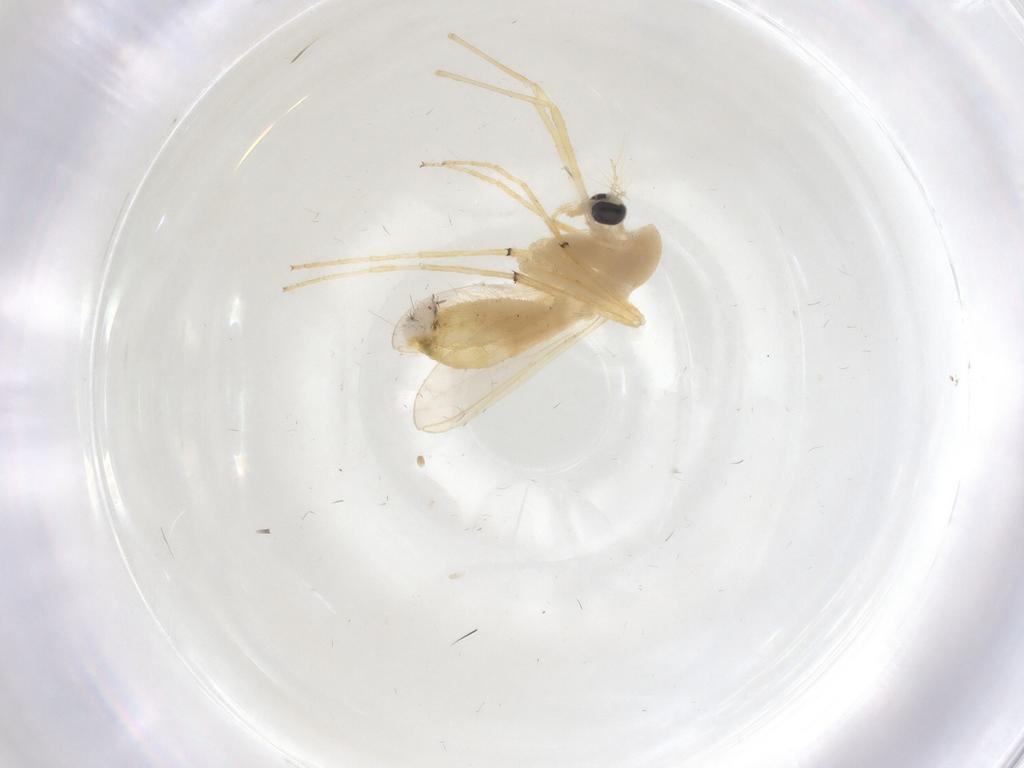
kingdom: Animalia
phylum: Arthropoda
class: Insecta
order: Diptera
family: Chironomidae
